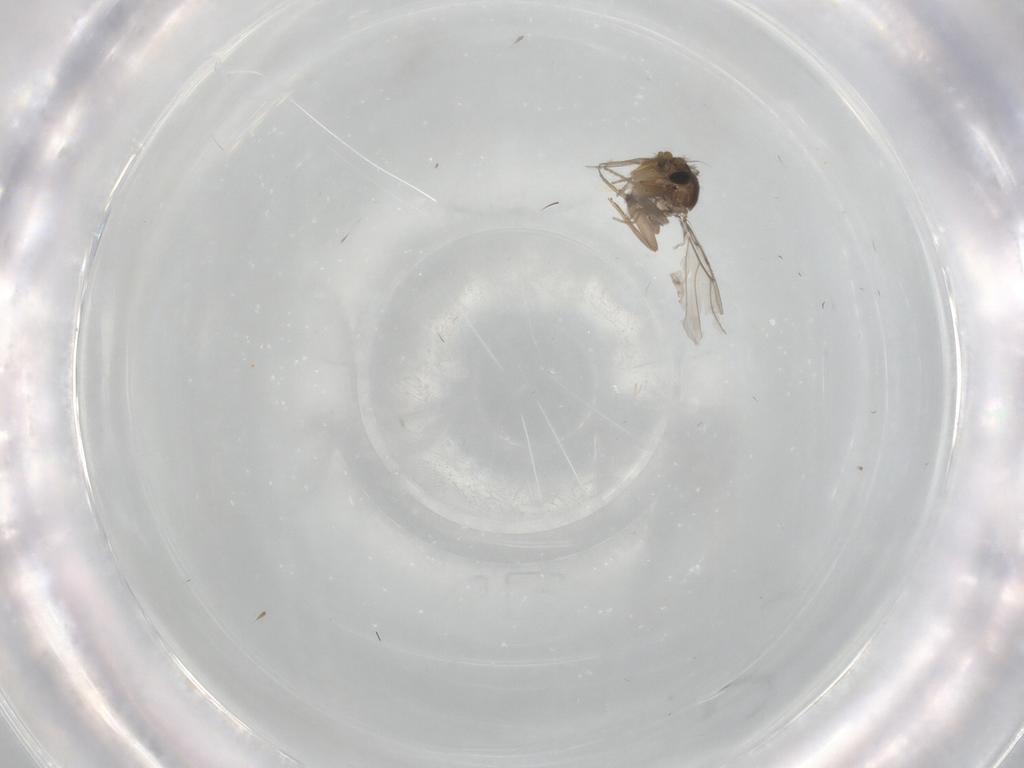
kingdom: Animalia
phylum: Arthropoda
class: Insecta
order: Diptera
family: Chironomidae
